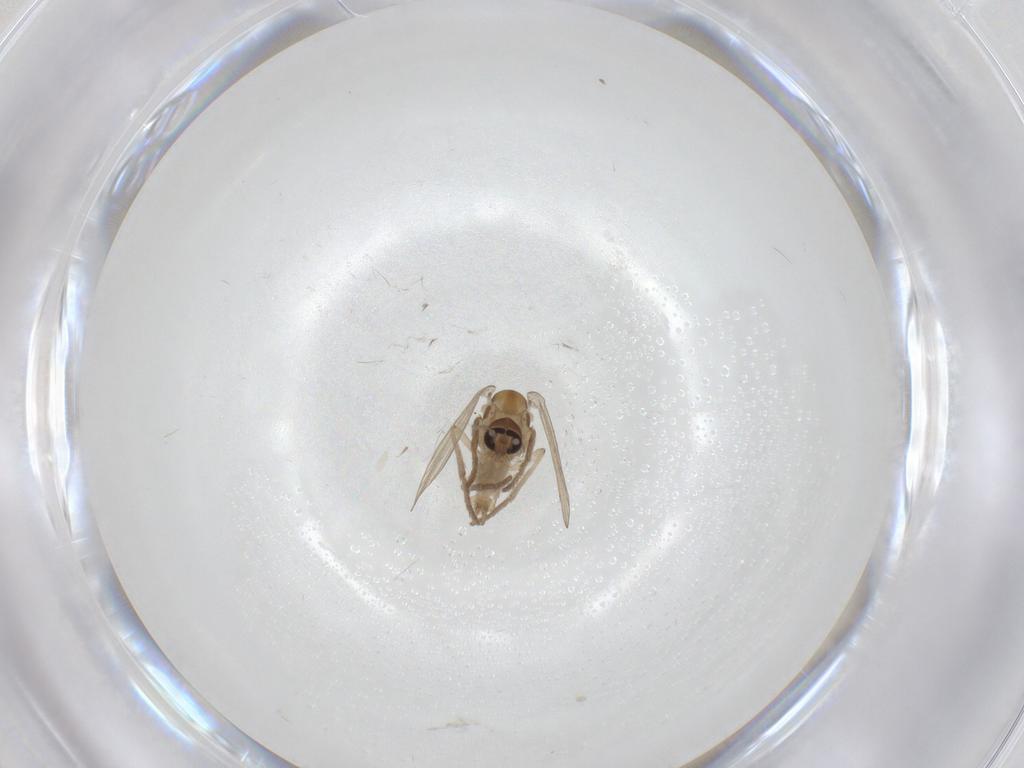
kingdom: Animalia
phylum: Arthropoda
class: Insecta
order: Diptera
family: Psychodidae
